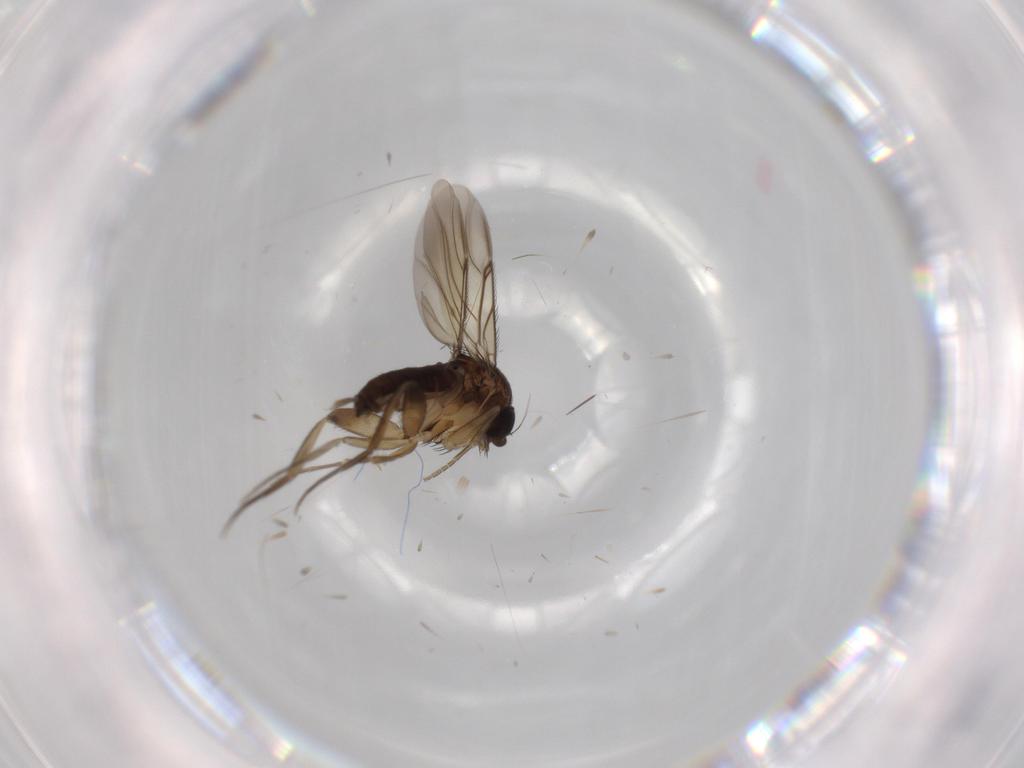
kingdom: Animalia
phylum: Arthropoda
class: Insecta
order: Diptera
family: Phoridae
